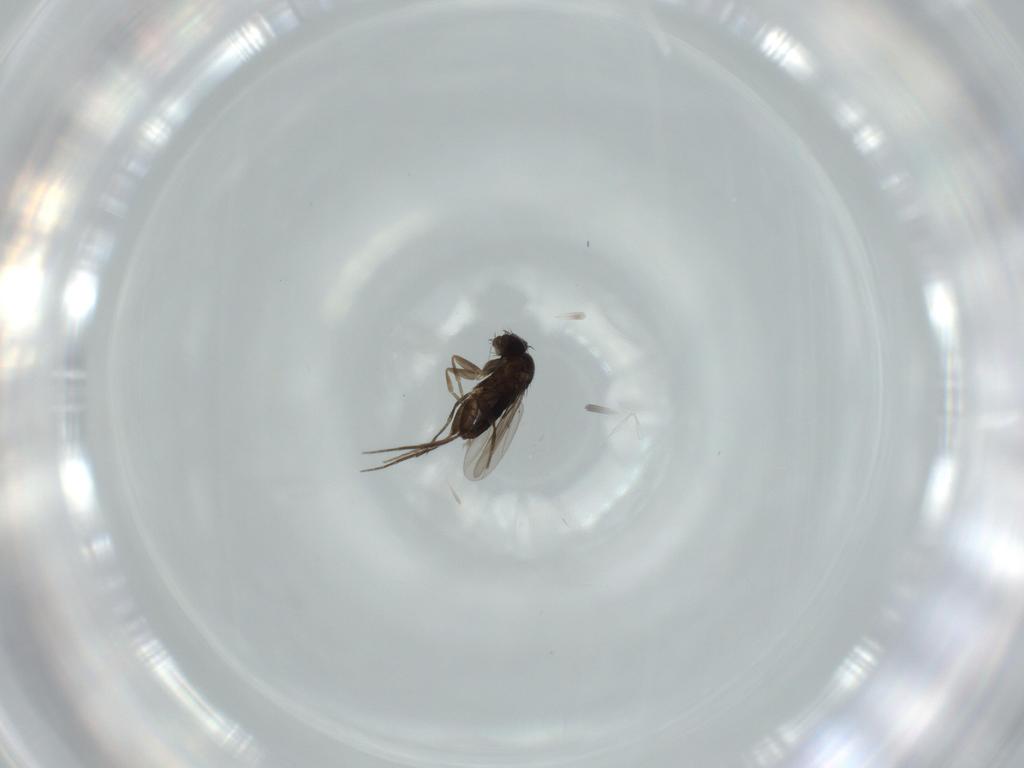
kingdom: Animalia
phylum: Arthropoda
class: Insecta
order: Diptera
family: Phoridae
